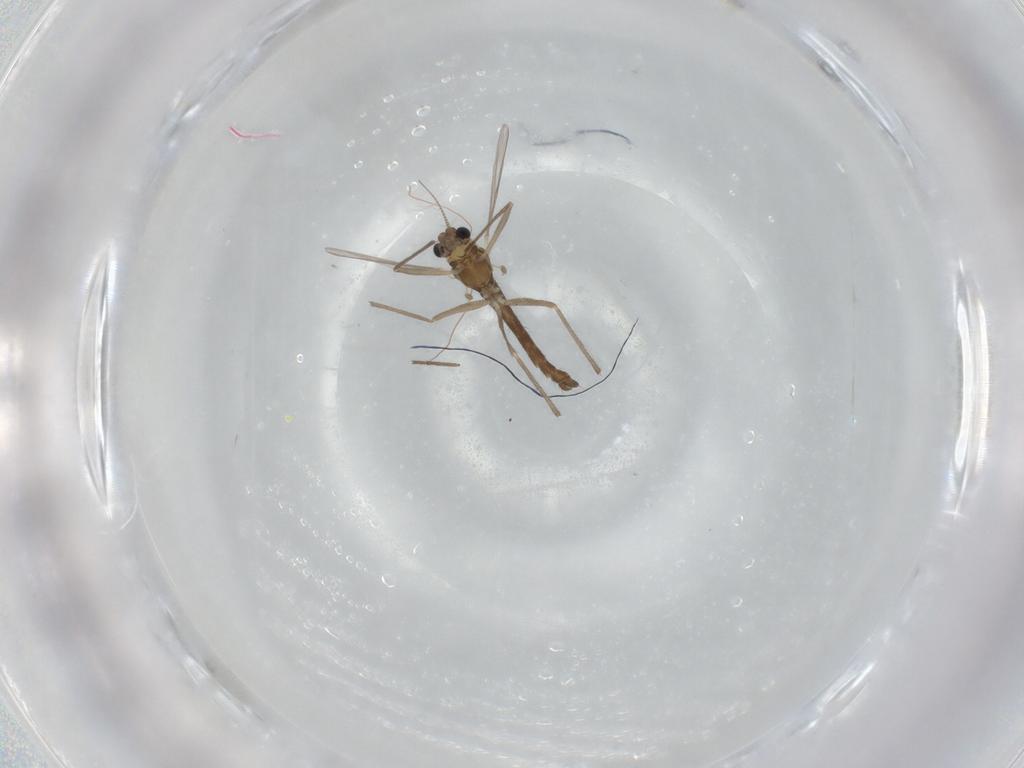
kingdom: Animalia
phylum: Arthropoda
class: Insecta
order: Diptera
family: Chironomidae
